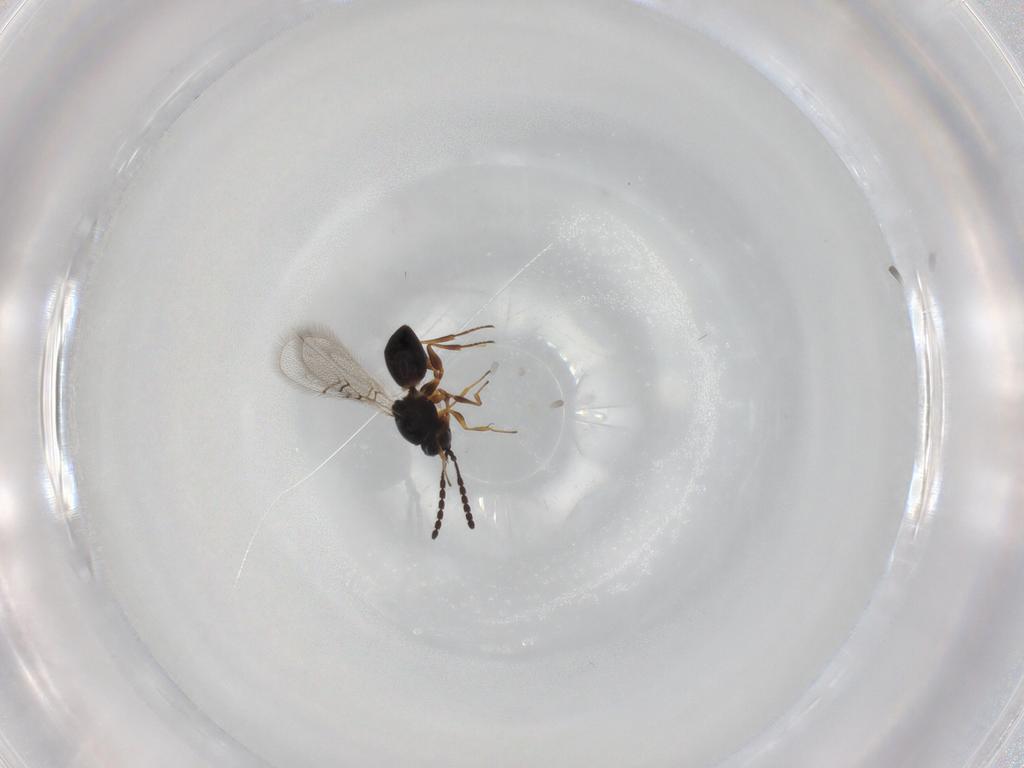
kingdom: Animalia
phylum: Arthropoda
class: Insecta
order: Hymenoptera
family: Figitidae
